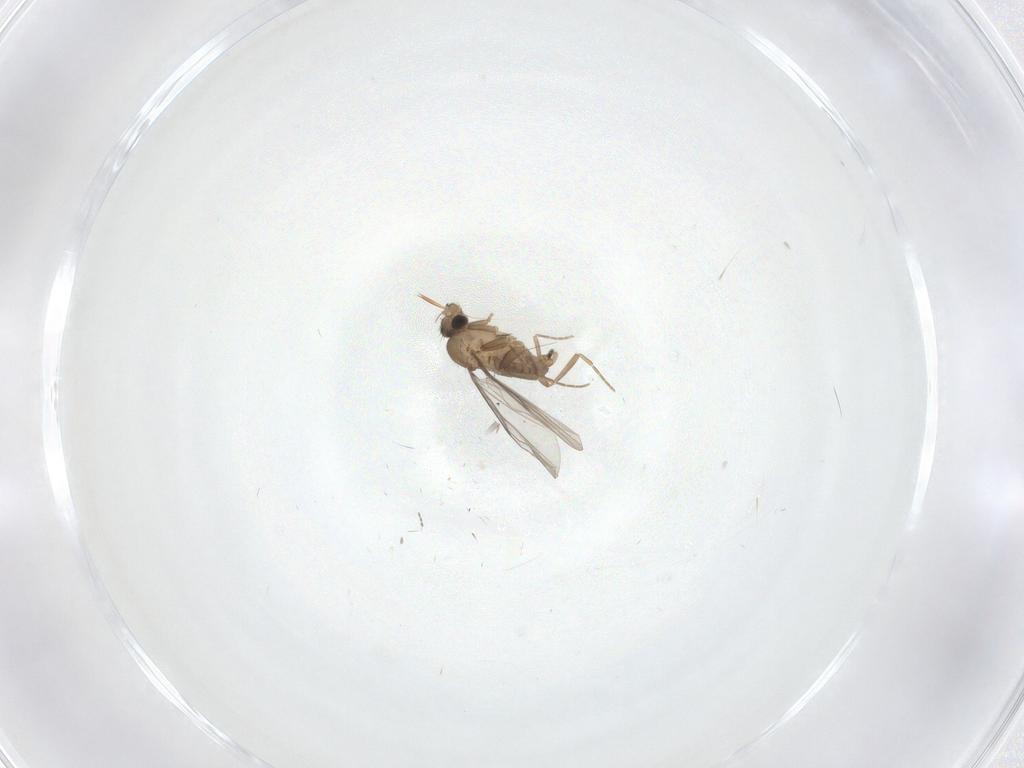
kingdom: Animalia
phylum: Arthropoda
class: Insecta
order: Diptera
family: Cecidomyiidae
